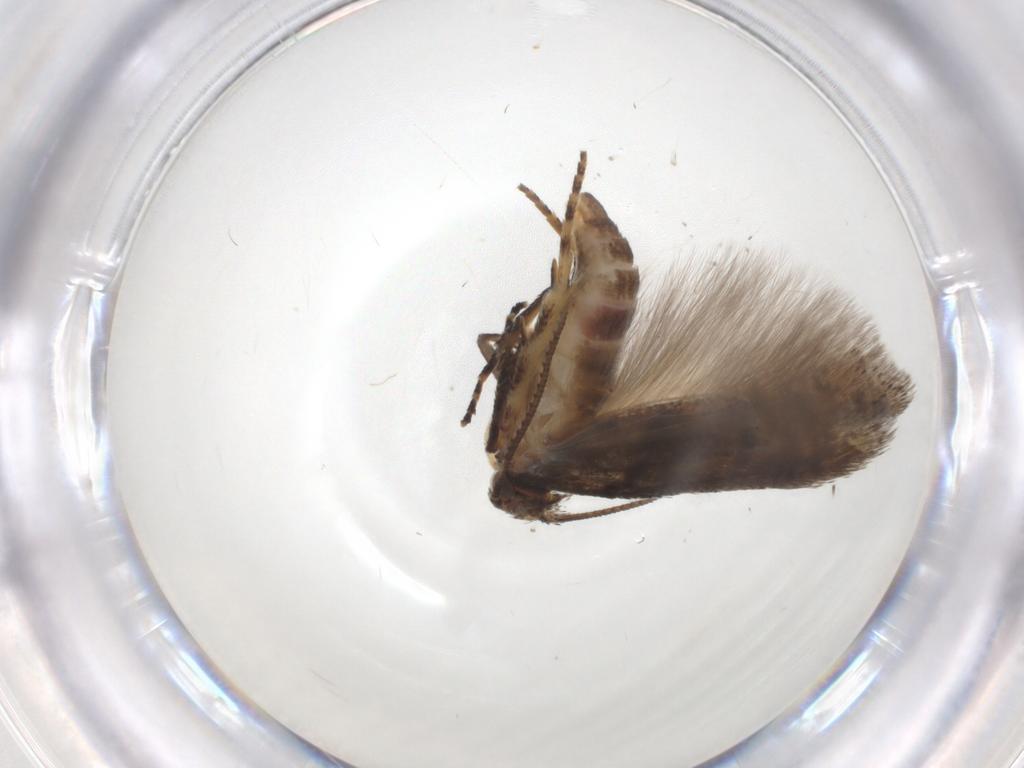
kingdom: Animalia
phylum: Arthropoda
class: Insecta
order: Lepidoptera
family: Gelechiidae
